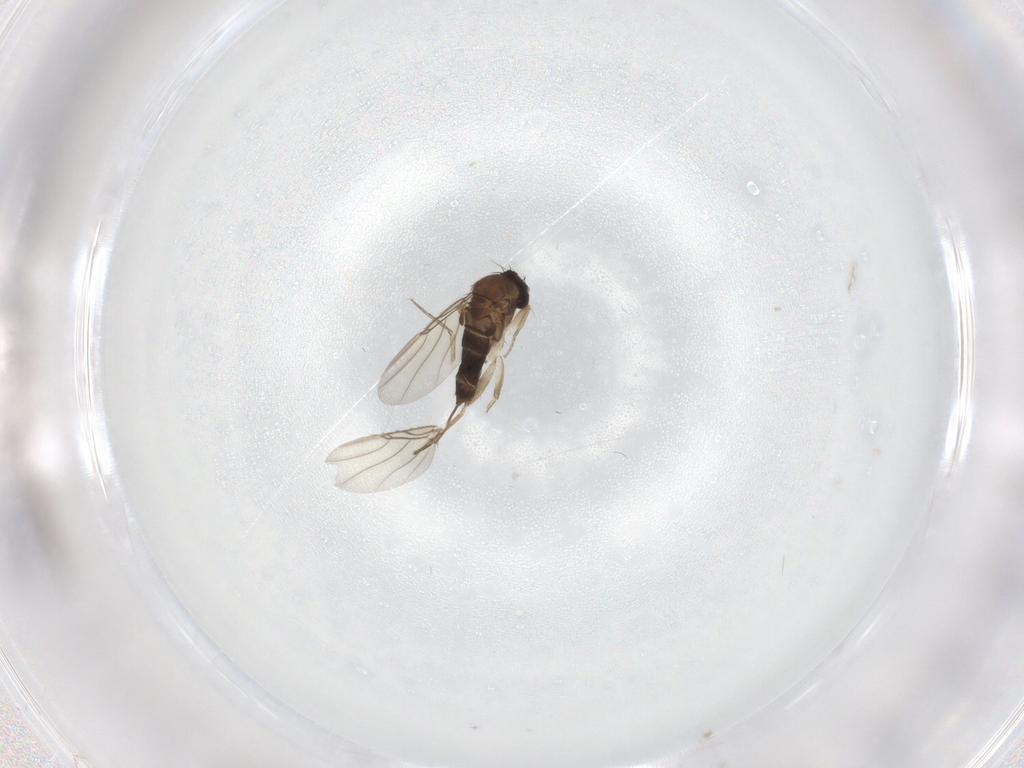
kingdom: Animalia
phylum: Arthropoda
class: Insecta
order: Diptera
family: Phoridae
